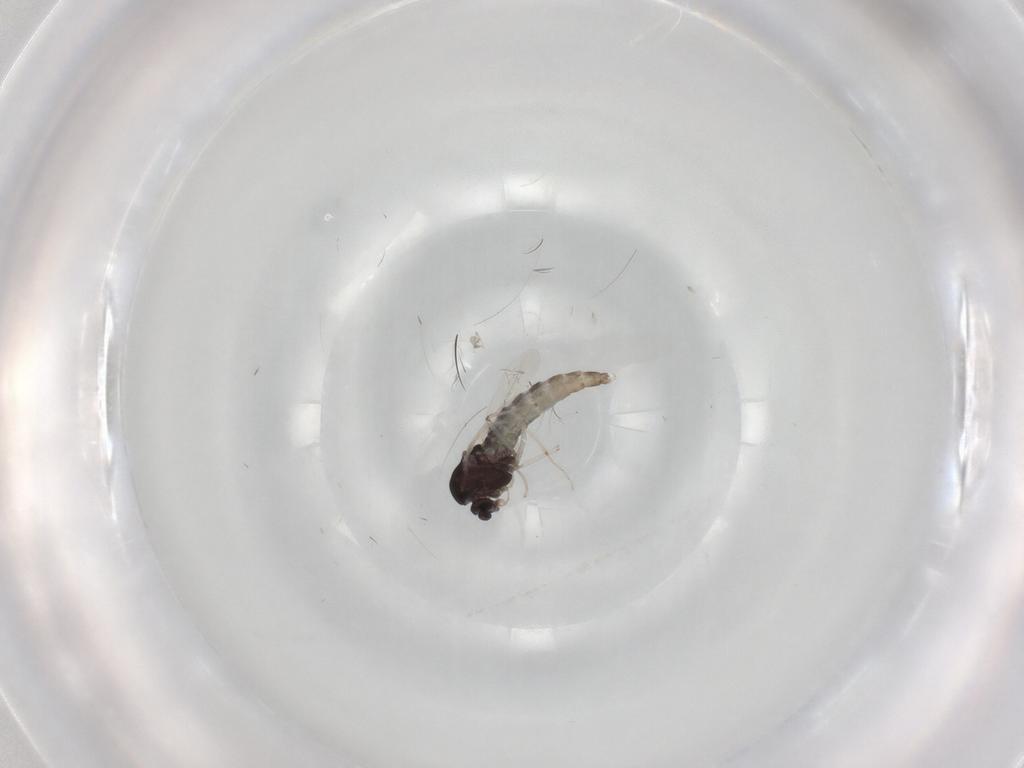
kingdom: Animalia
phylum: Arthropoda
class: Insecta
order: Diptera
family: Chironomidae
